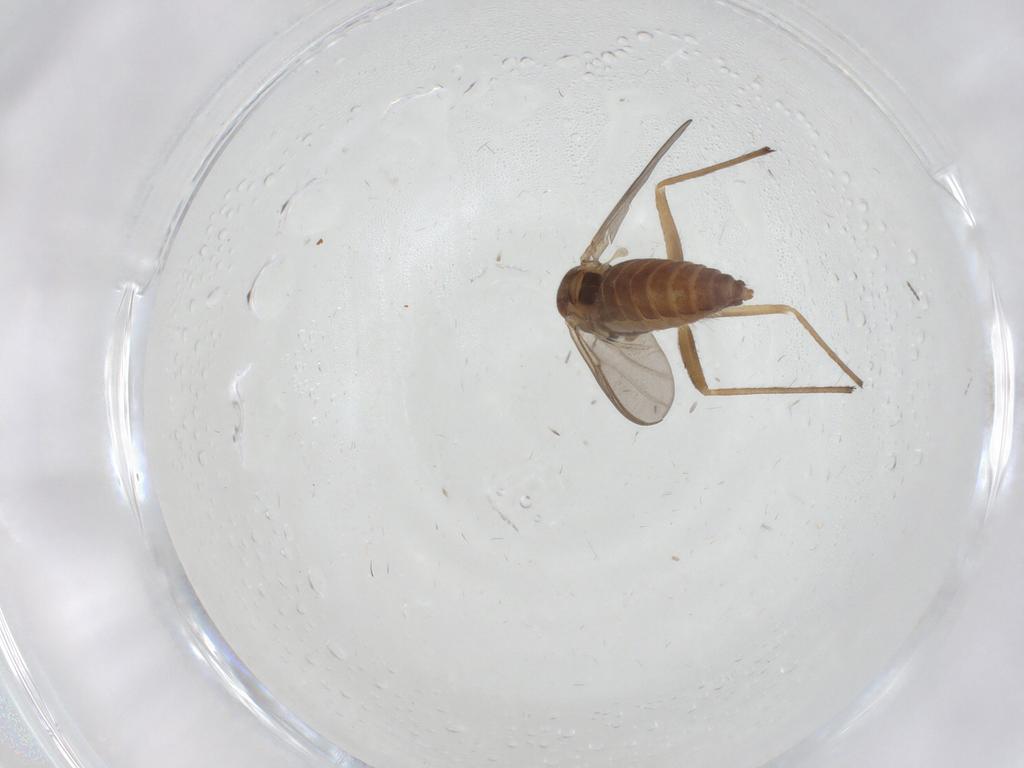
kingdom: Animalia
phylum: Arthropoda
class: Insecta
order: Diptera
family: Chironomidae
